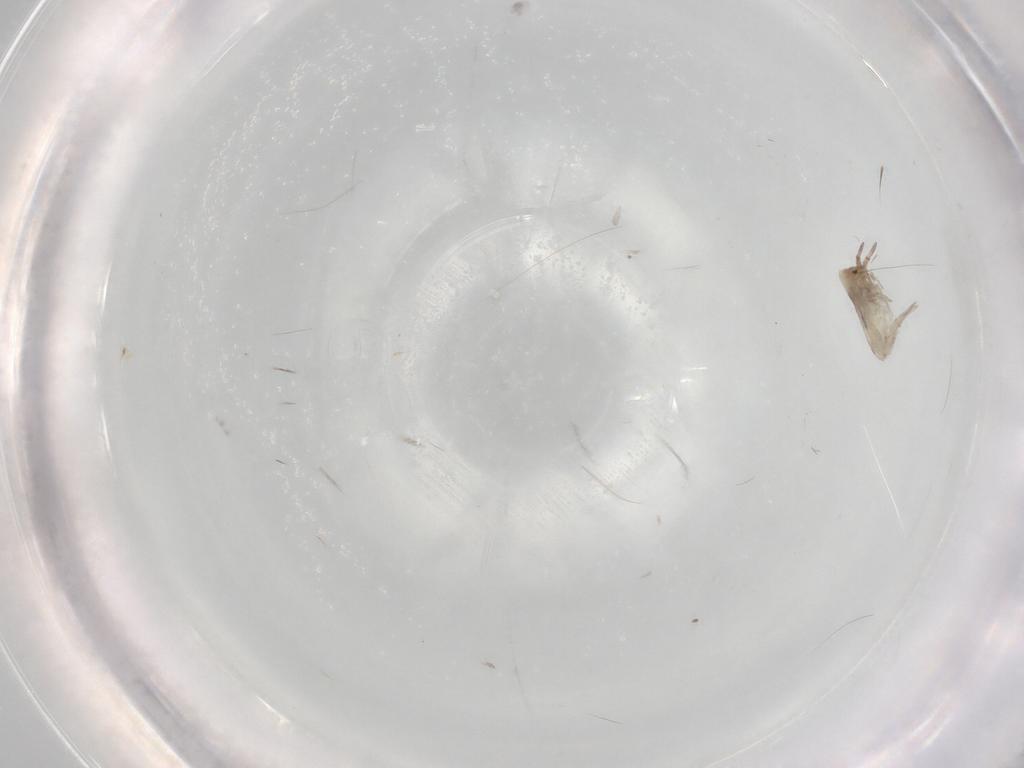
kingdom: Animalia
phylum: Arthropoda
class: Collembola
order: Entomobryomorpha
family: Entomobryidae
